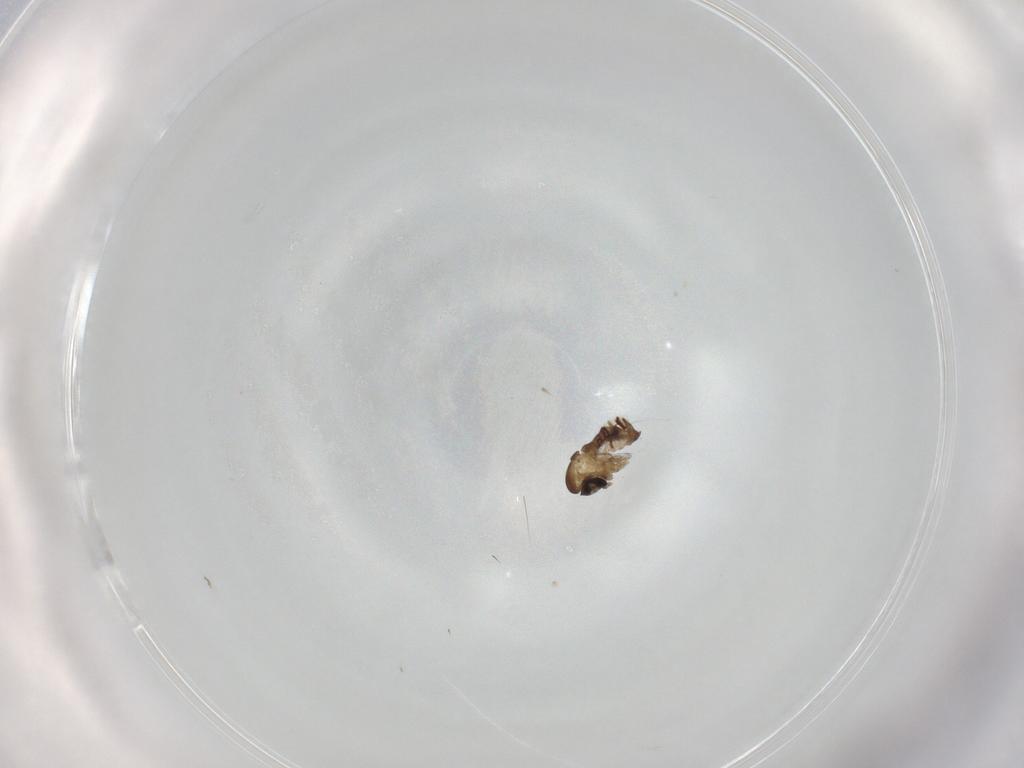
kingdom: Animalia
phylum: Arthropoda
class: Insecta
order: Diptera
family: Psychodidae
